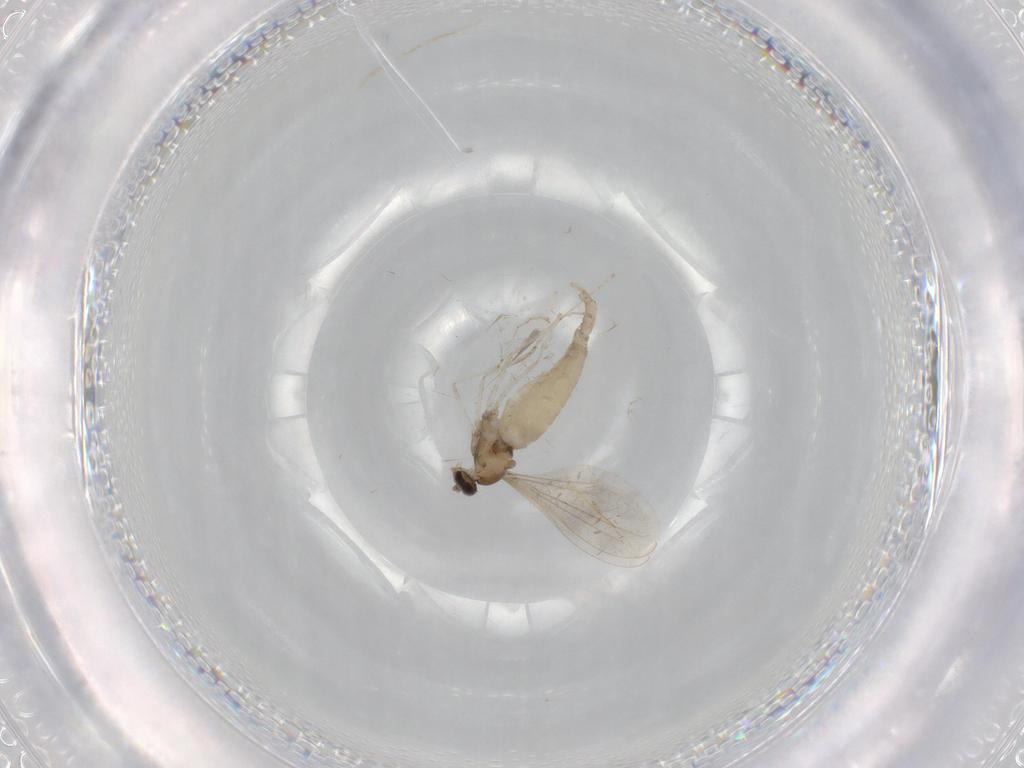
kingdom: Animalia
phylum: Arthropoda
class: Insecta
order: Diptera
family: Cecidomyiidae
